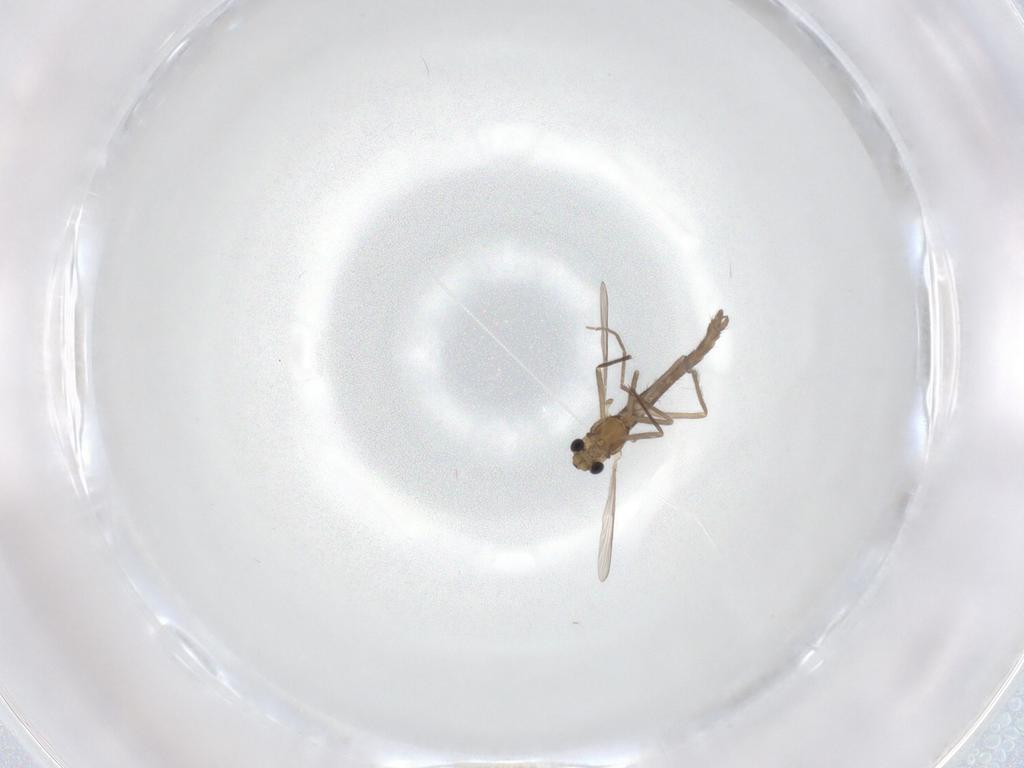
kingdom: Animalia
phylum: Arthropoda
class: Insecta
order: Diptera
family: Chironomidae
